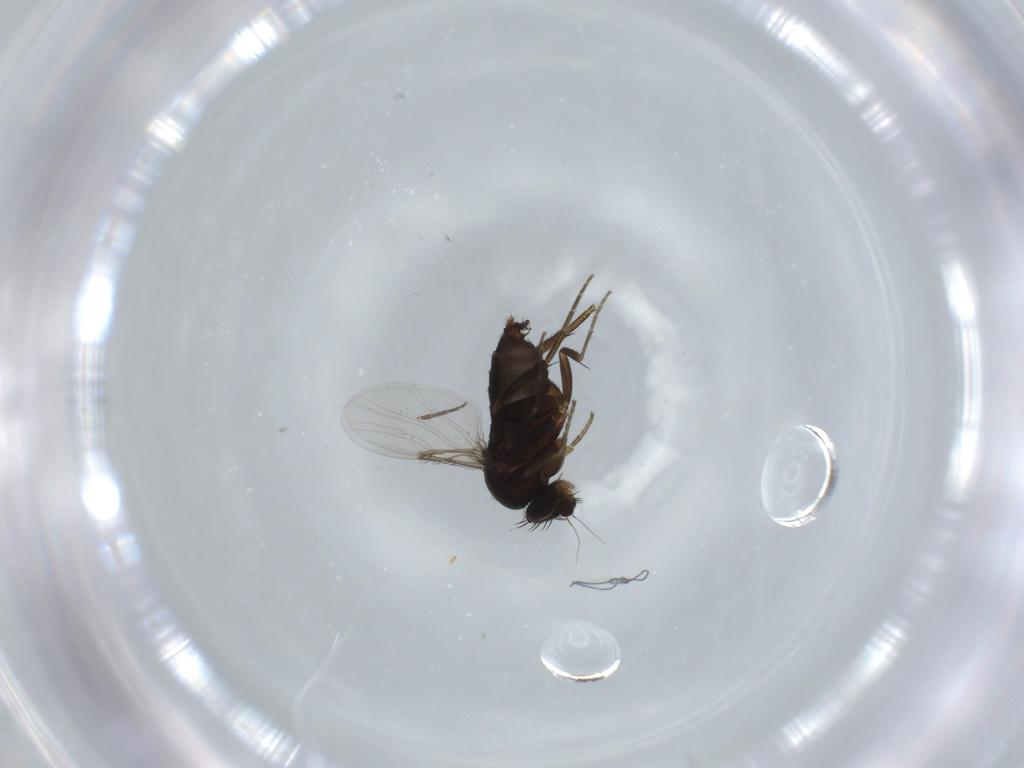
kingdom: Animalia
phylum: Arthropoda
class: Insecta
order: Diptera
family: Phoridae
